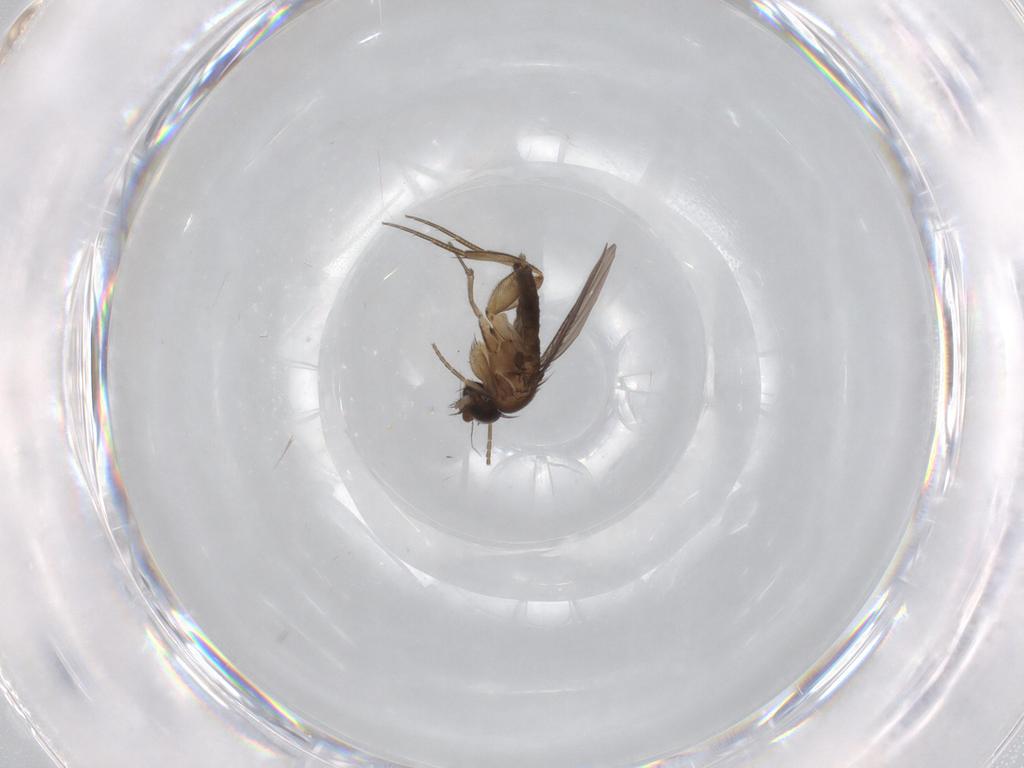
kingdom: Animalia
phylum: Arthropoda
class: Insecta
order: Diptera
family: Phoridae
